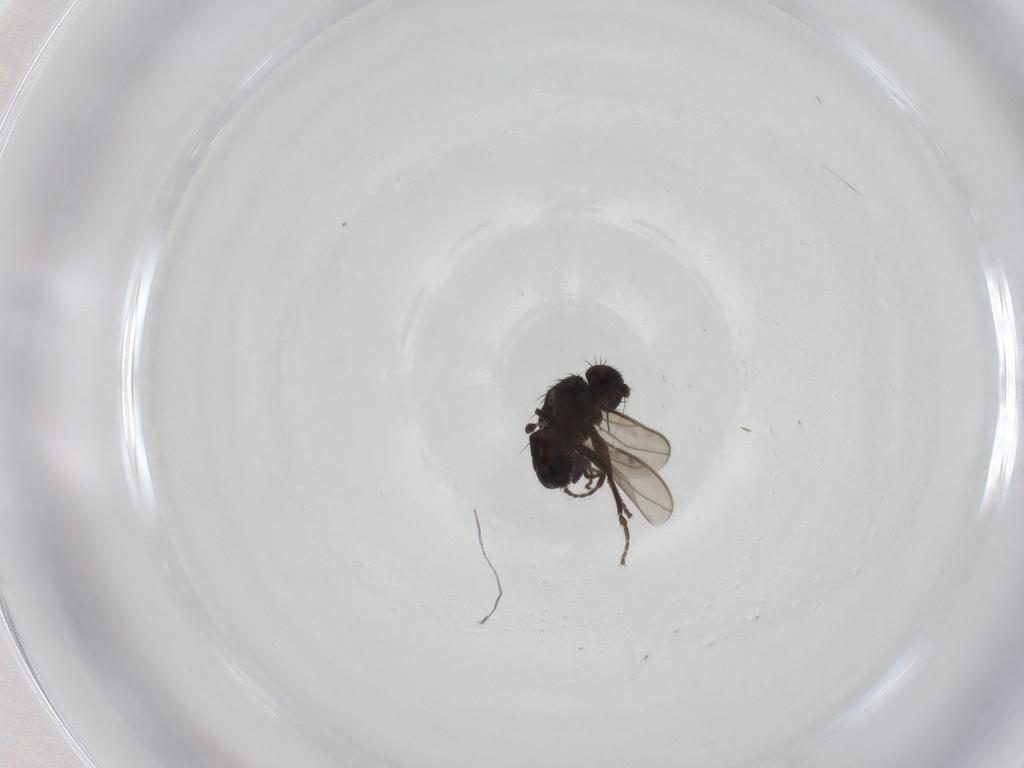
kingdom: Animalia
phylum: Arthropoda
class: Insecta
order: Diptera
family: Sphaeroceridae
